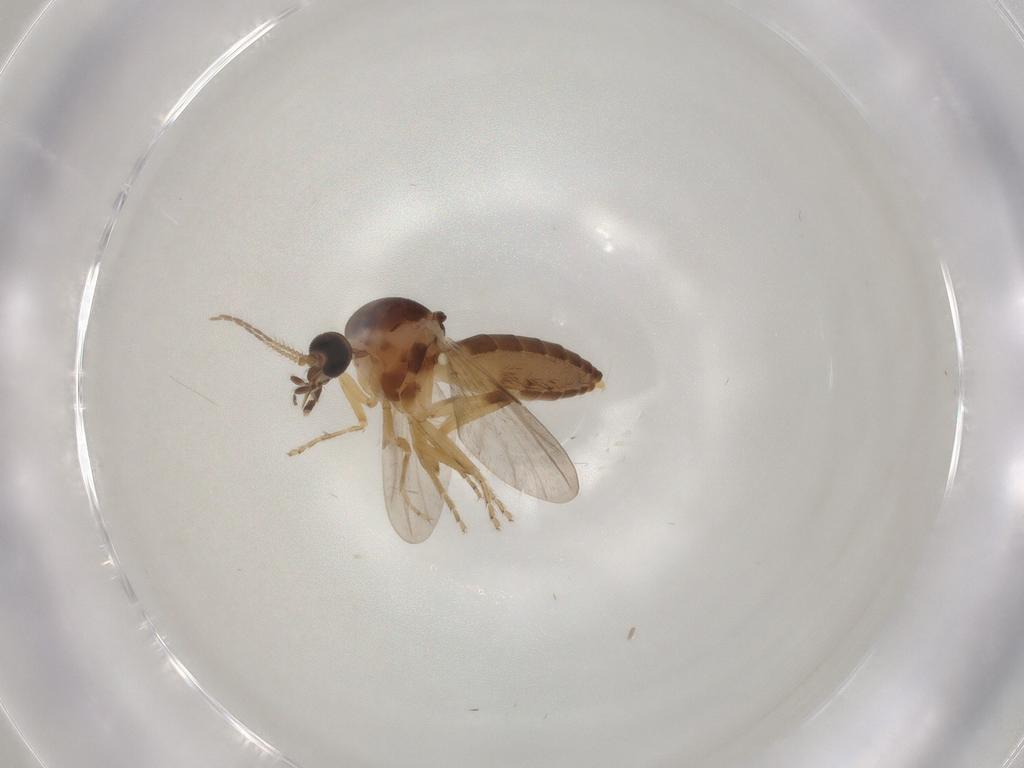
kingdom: Animalia
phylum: Arthropoda
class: Insecta
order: Diptera
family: Ceratopogonidae
